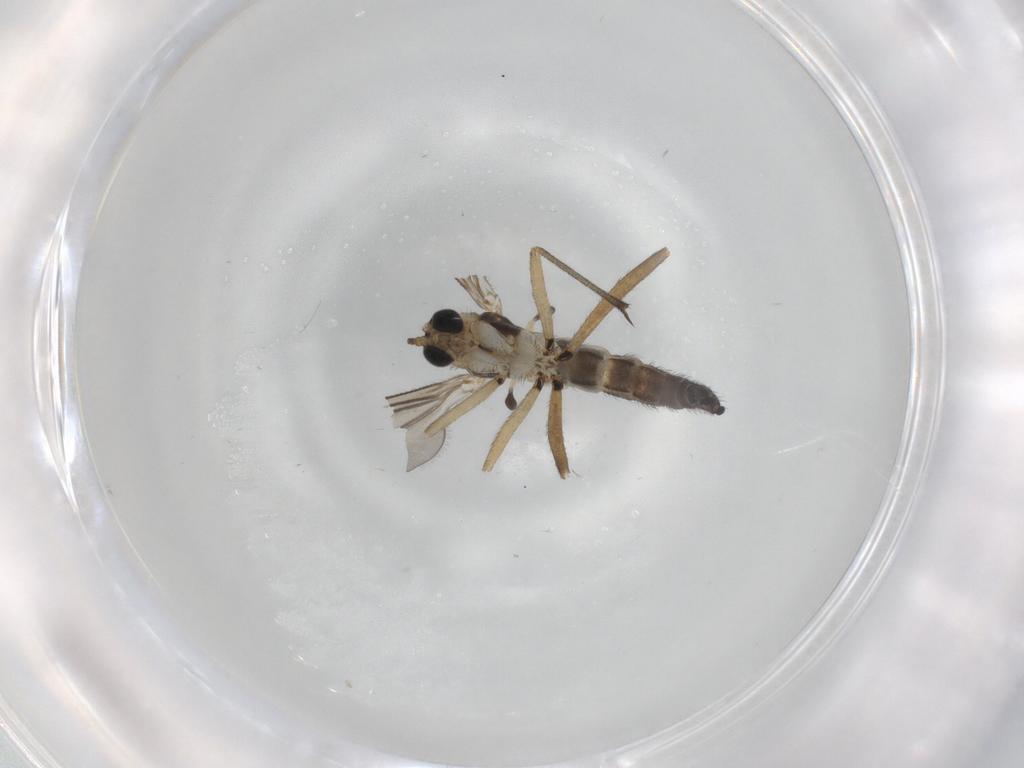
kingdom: Animalia
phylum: Arthropoda
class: Insecta
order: Diptera
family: Sciaridae
